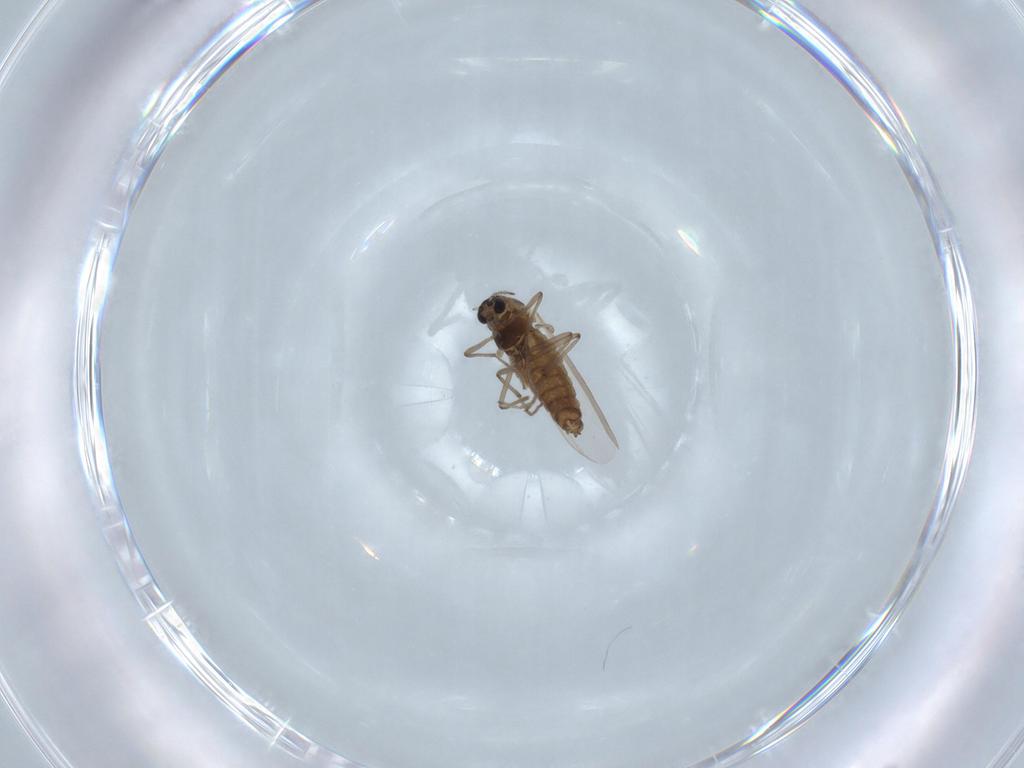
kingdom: Animalia
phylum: Arthropoda
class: Insecta
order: Diptera
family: Chironomidae
